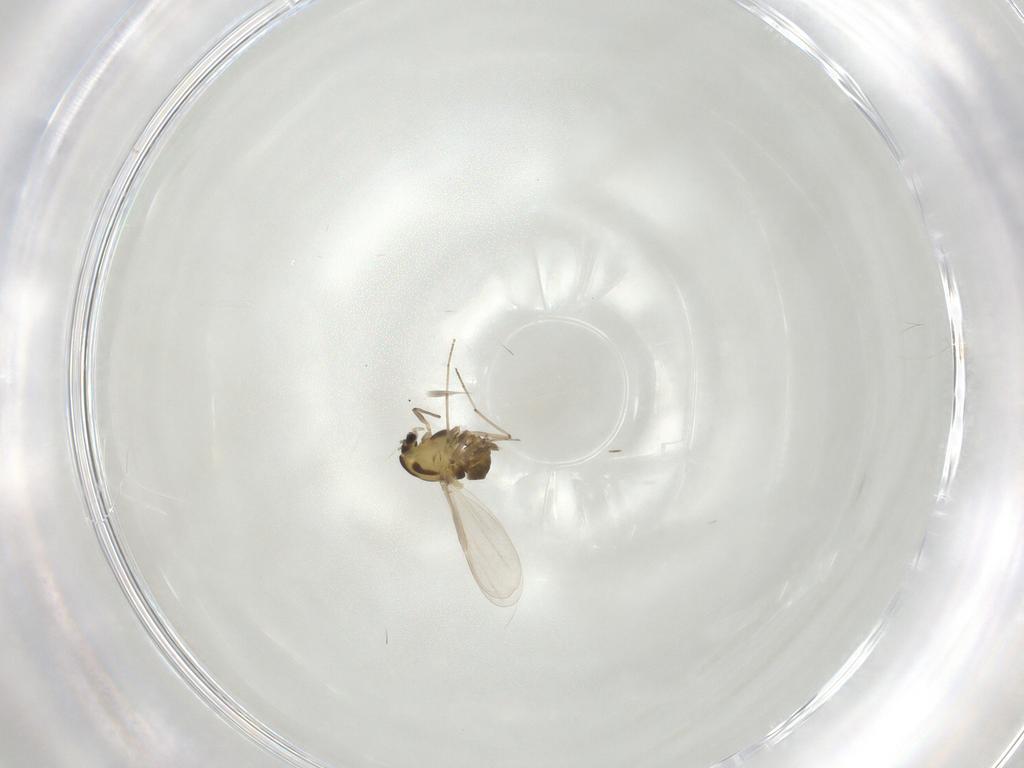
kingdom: Animalia
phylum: Arthropoda
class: Insecta
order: Diptera
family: Chironomidae
